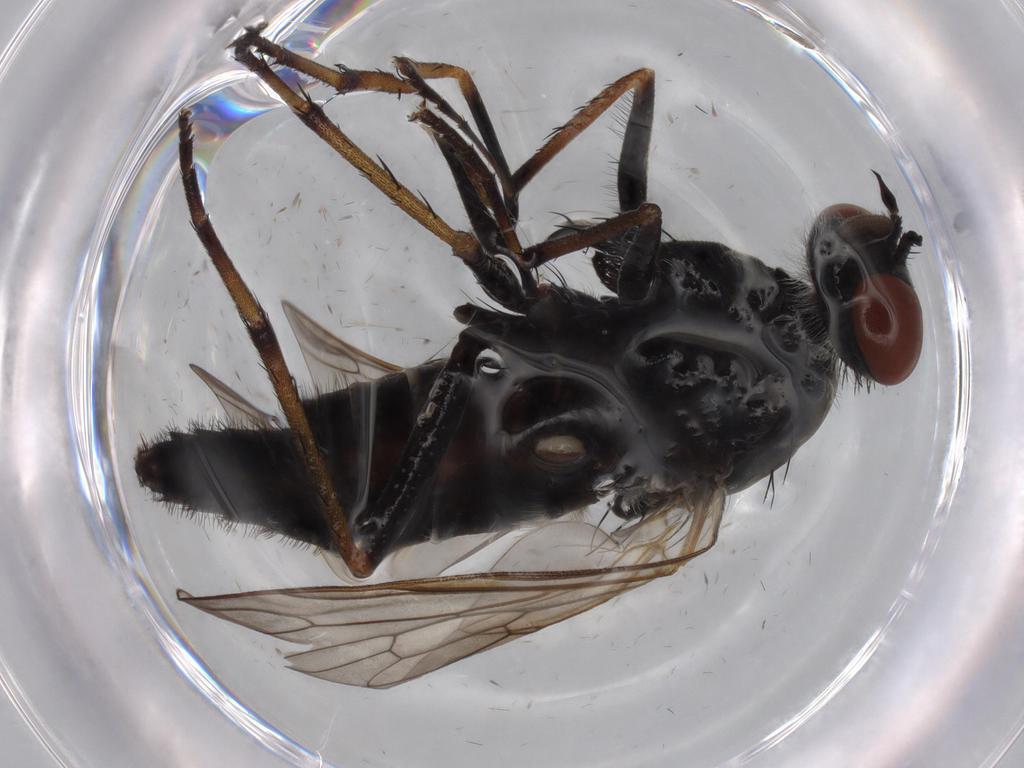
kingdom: Animalia
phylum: Arthropoda
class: Insecta
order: Diptera
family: Sciaridae
